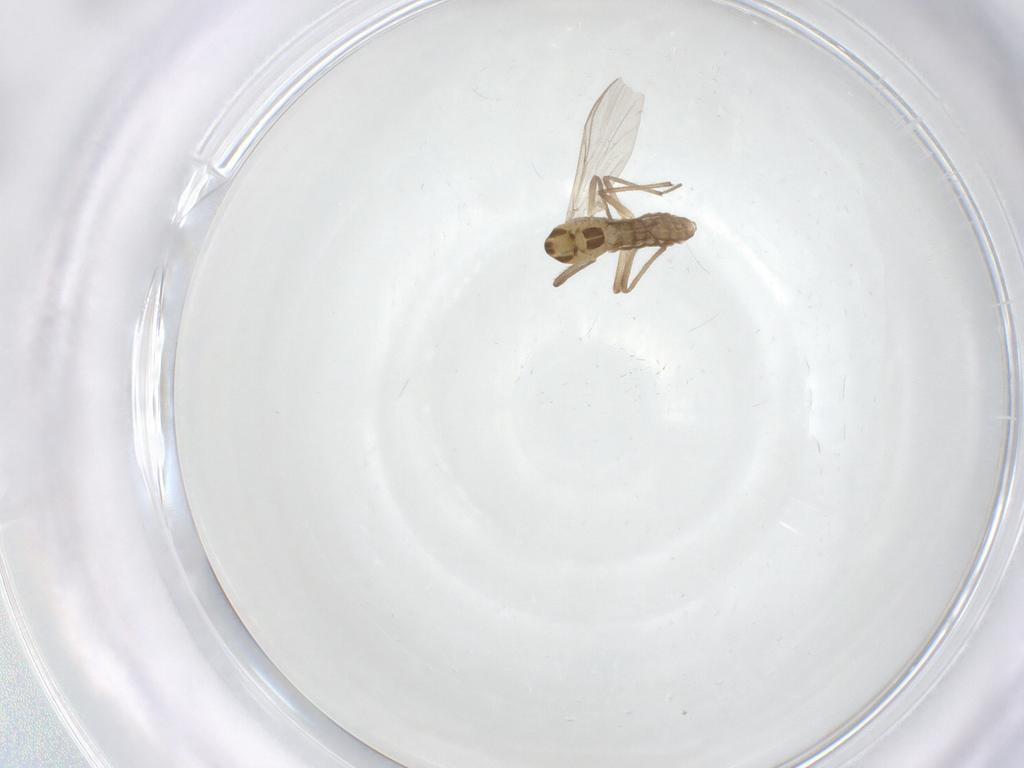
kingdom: Animalia
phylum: Arthropoda
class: Insecta
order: Diptera
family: Chironomidae
